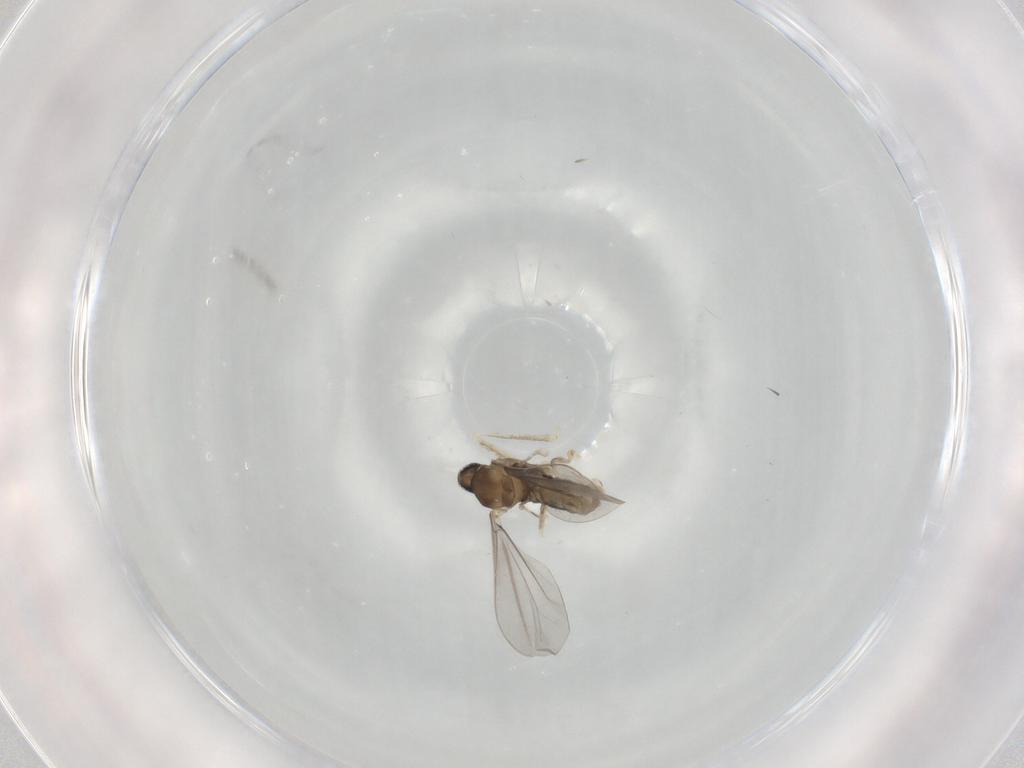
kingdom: Animalia
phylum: Arthropoda
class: Insecta
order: Diptera
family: Cecidomyiidae
